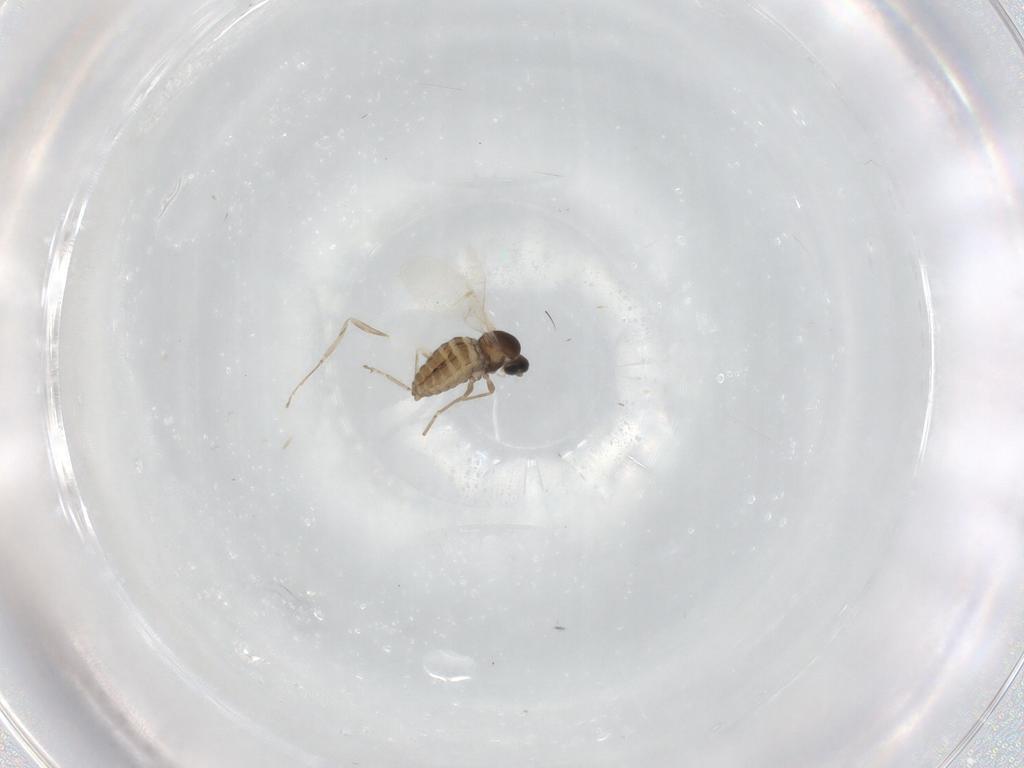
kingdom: Animalia
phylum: Arthropoda
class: Insecta
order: Diptera
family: Cecidomyiidae
